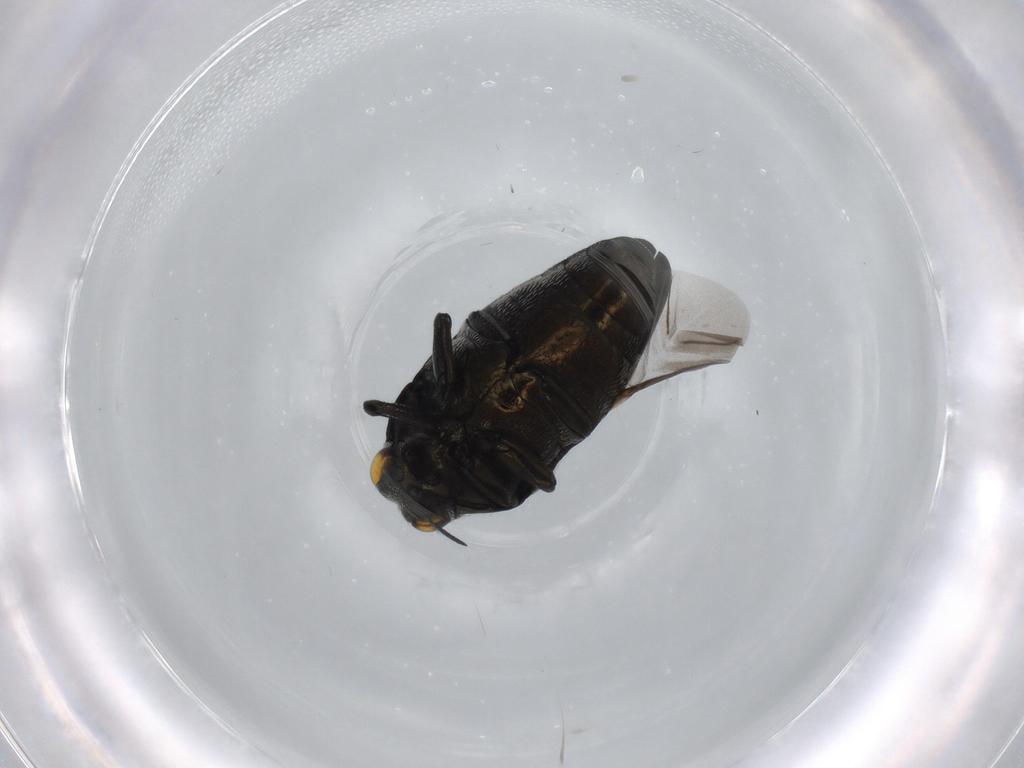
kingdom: Animalia
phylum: Arthropoda
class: Insecta
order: Coleoptera
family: Buprestidae
